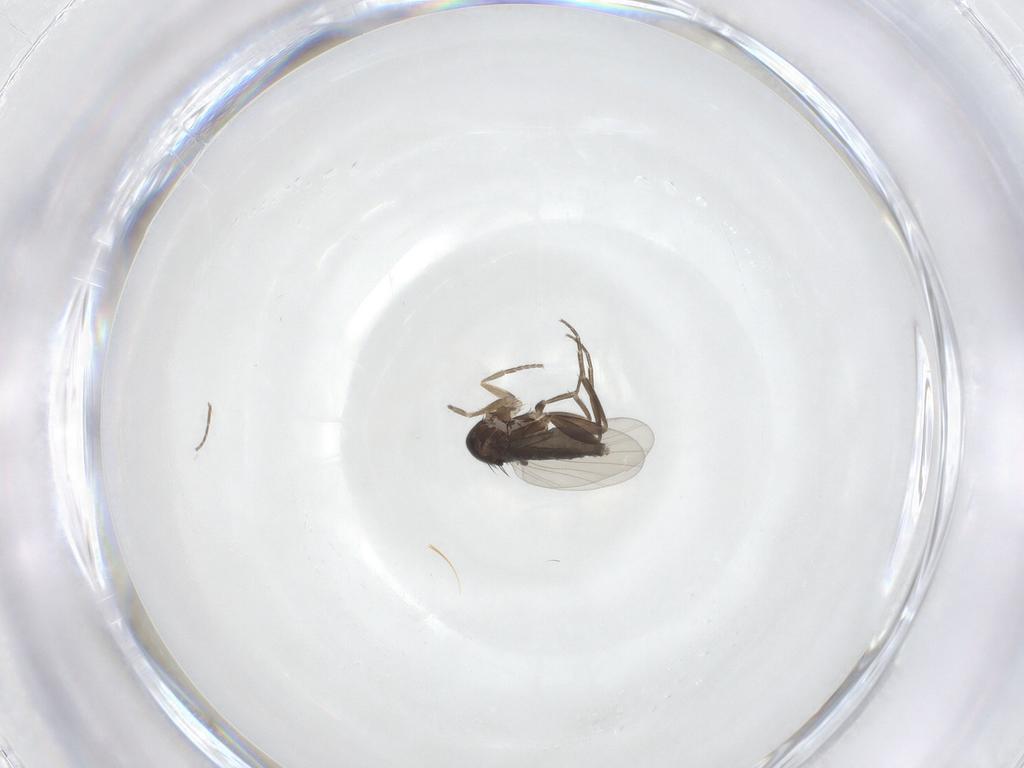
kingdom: Animalia
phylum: Arthropoda
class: Insecta
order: Diptera
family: Phoridae
